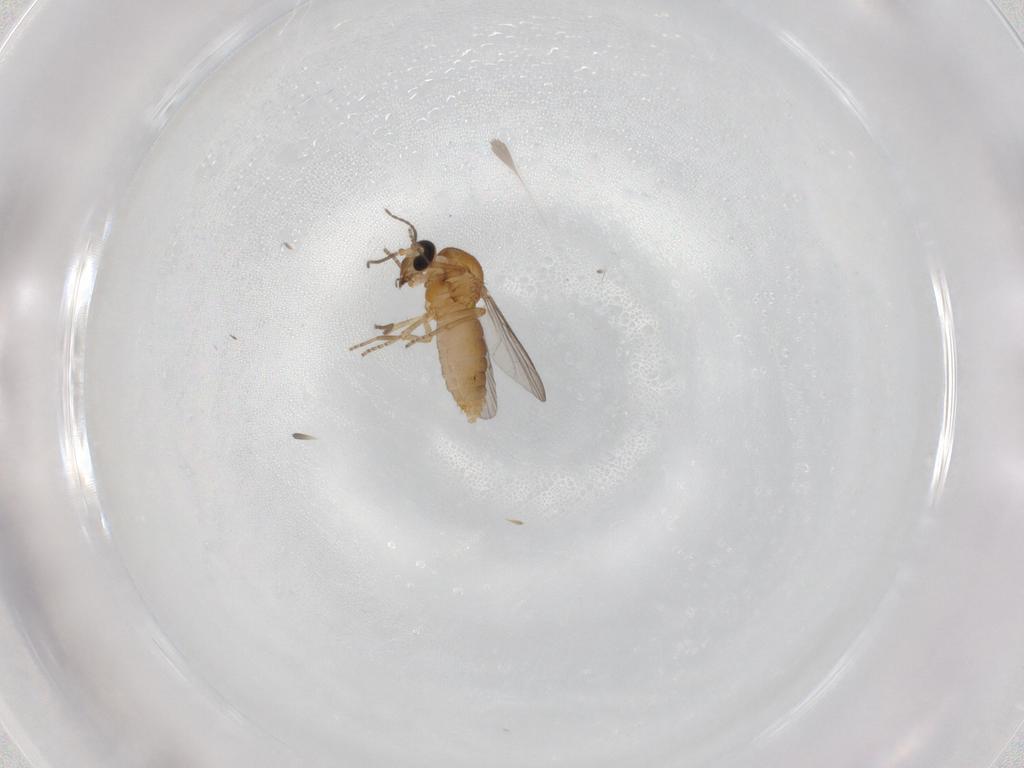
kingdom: Animalia
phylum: Arthropoda
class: Insecta
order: Diptera
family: Ceratopogonidae
